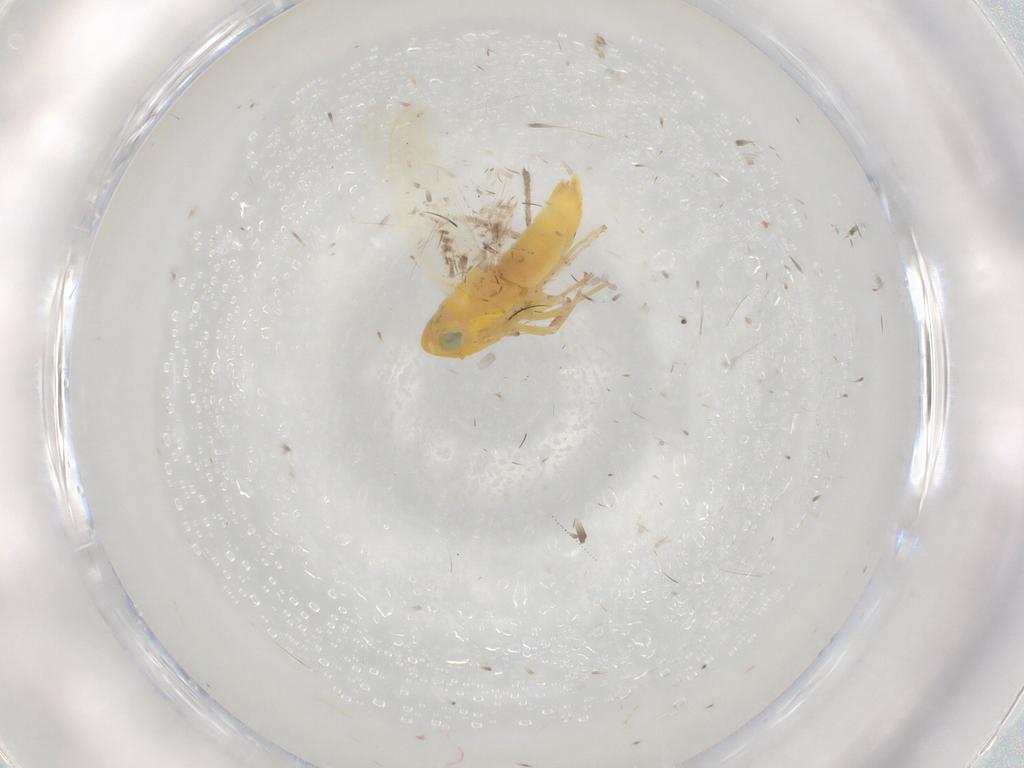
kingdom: Animalia
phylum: Arthropoda
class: Insecta
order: Hemiptera
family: Cicadellidae
